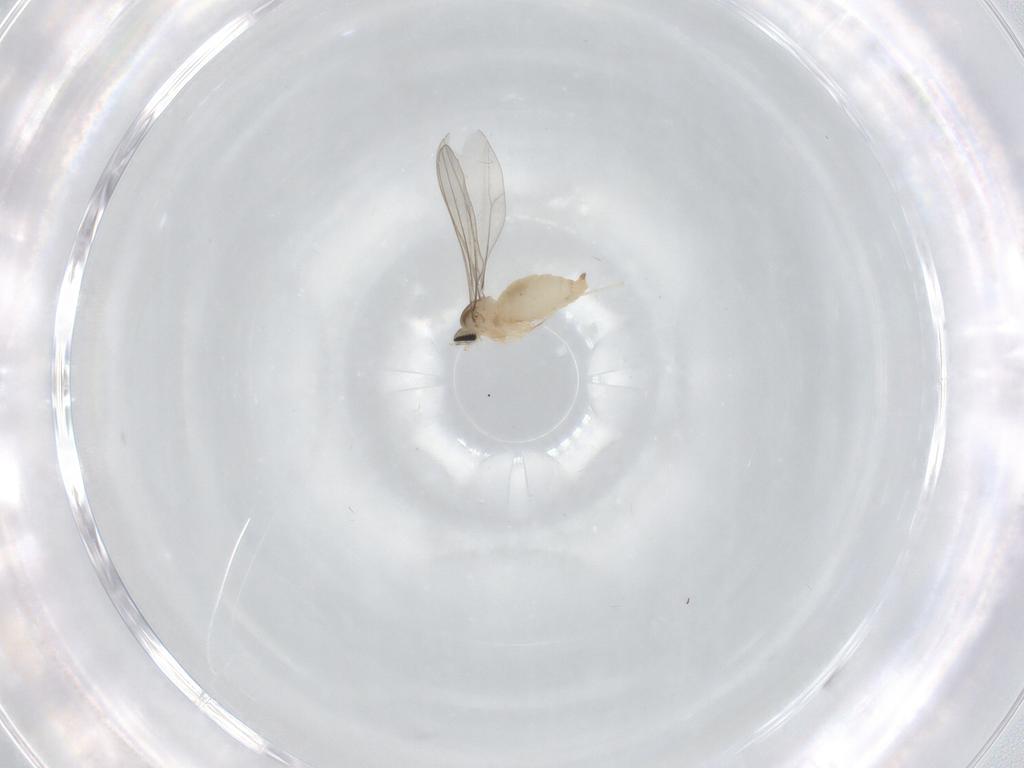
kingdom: Animalia
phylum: Arthropoda
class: Insecta
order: Diptera
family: Cecidomyiidae
